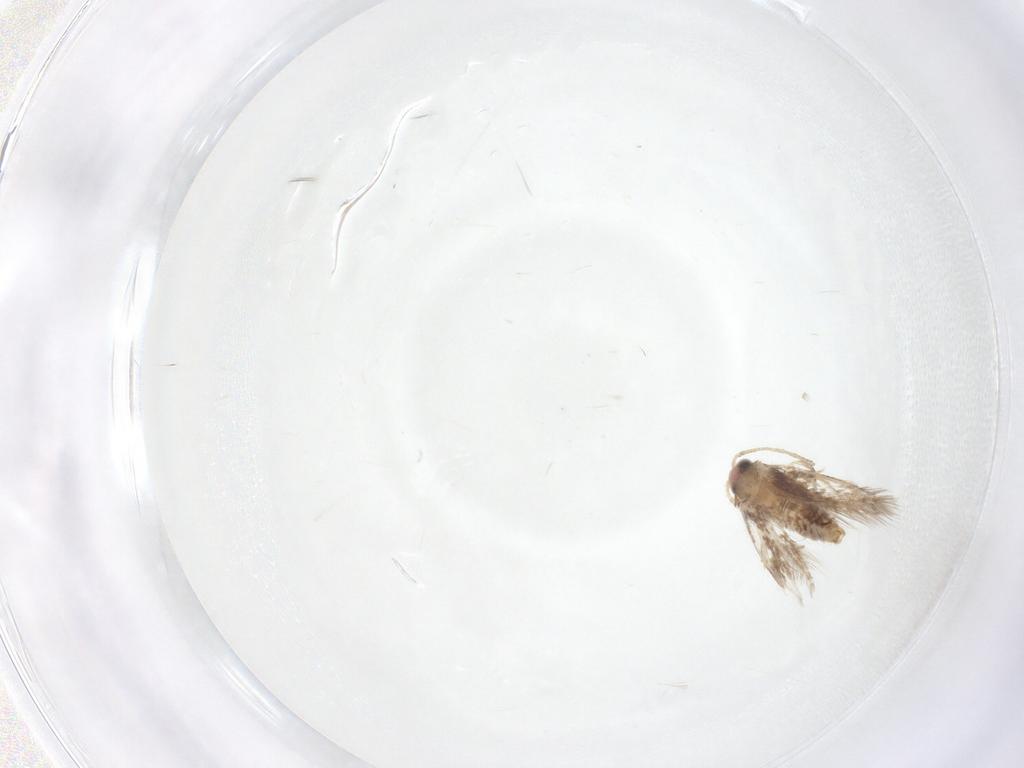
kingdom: Animalia
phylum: Arthropoda
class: Insecta
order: Lepidoptera
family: Nepticulidae
